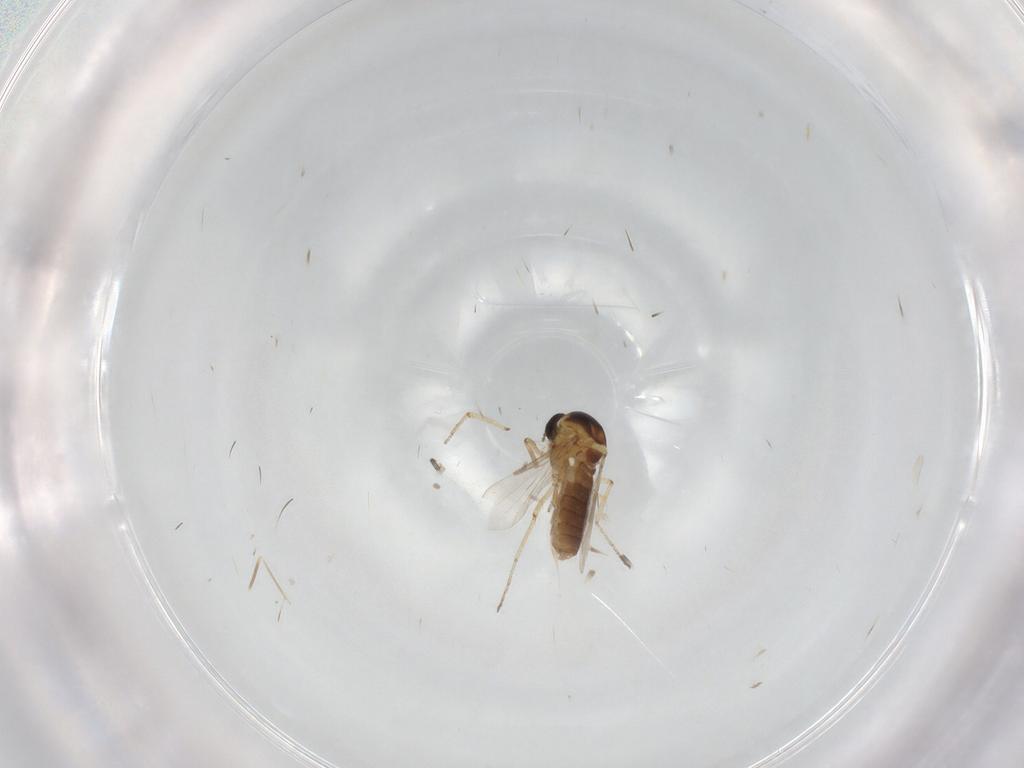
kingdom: Animalia
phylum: Arthropoda
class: Insecta
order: Diptera
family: Ceratopogonidae
